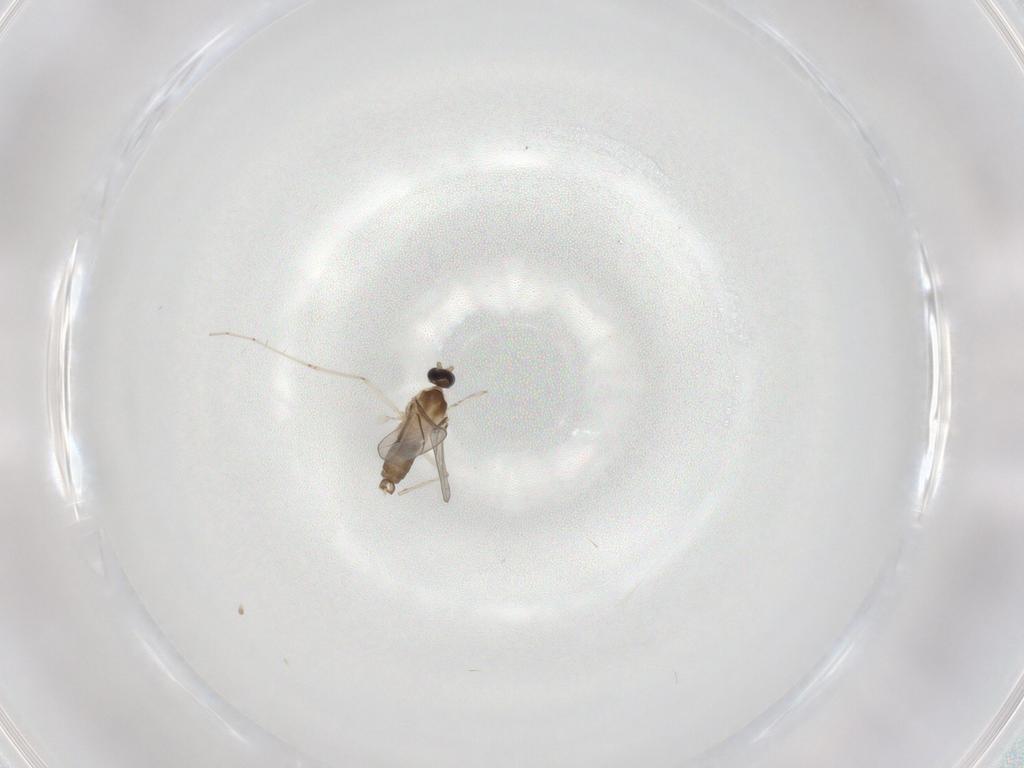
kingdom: Animalia
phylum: Arthropoda
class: Insecta
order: Diptera
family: Cecidomyiidae
